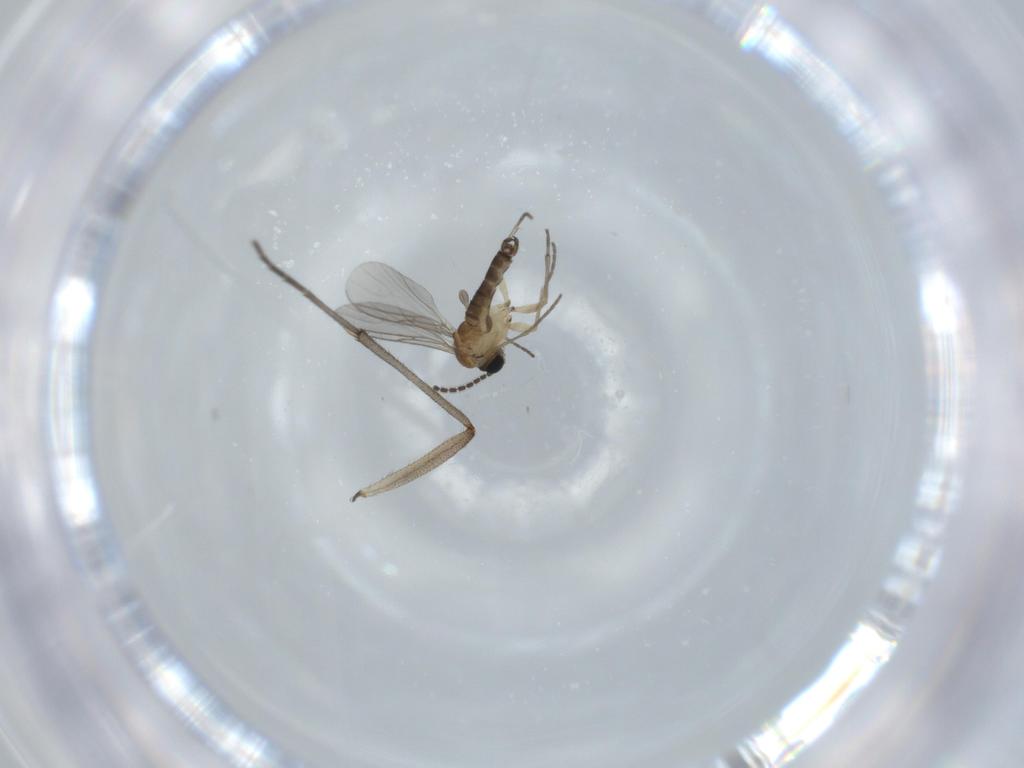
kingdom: Animalia
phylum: Arthropoda
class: Insecta
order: Diptera
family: Sciaridae
